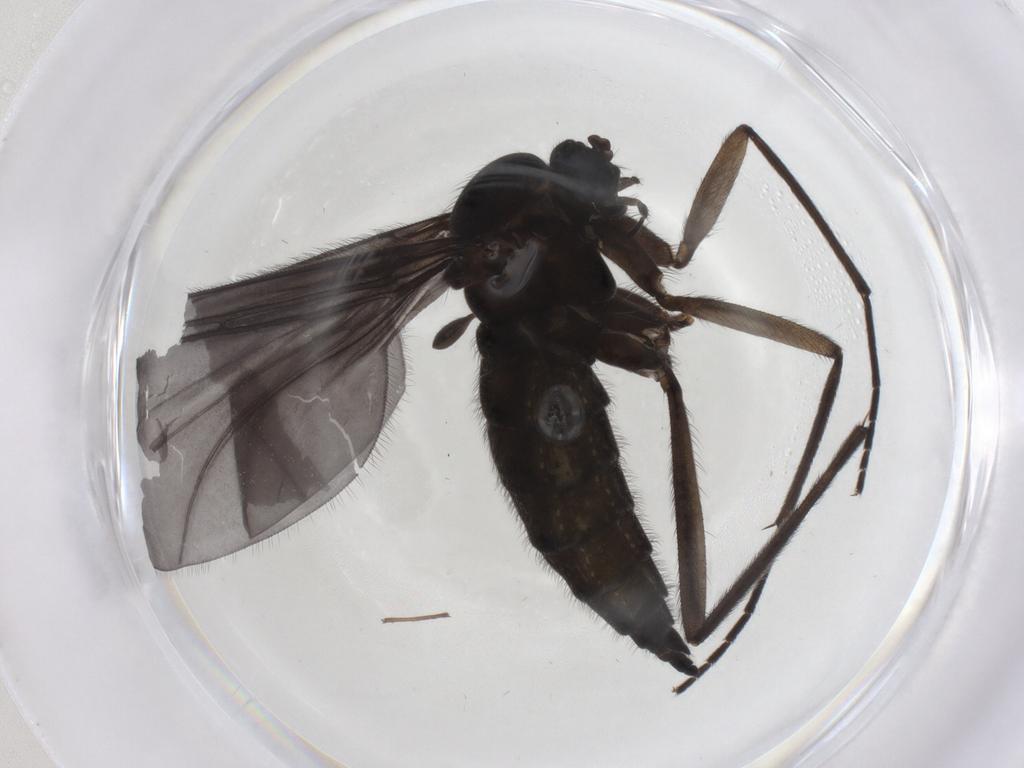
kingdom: Animalia
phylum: Arthropoda
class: Insecta
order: Diptera
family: Sciaridae
